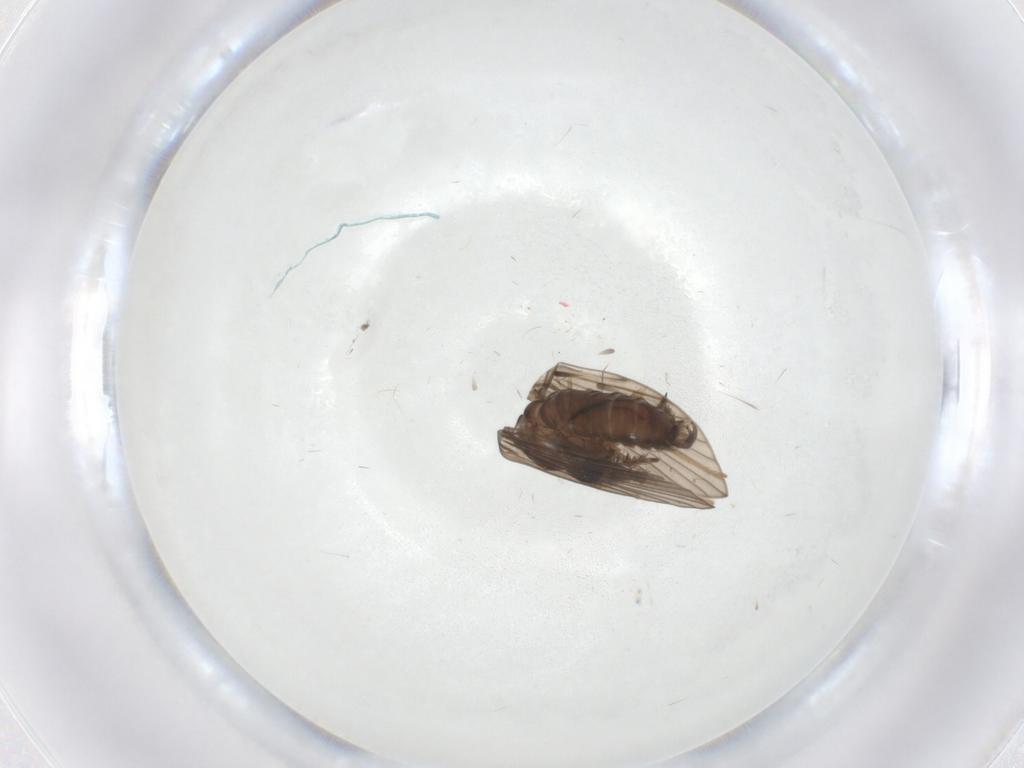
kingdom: Animalia
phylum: Arthropoda
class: Insecta
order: Diptera
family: Psychodidae
